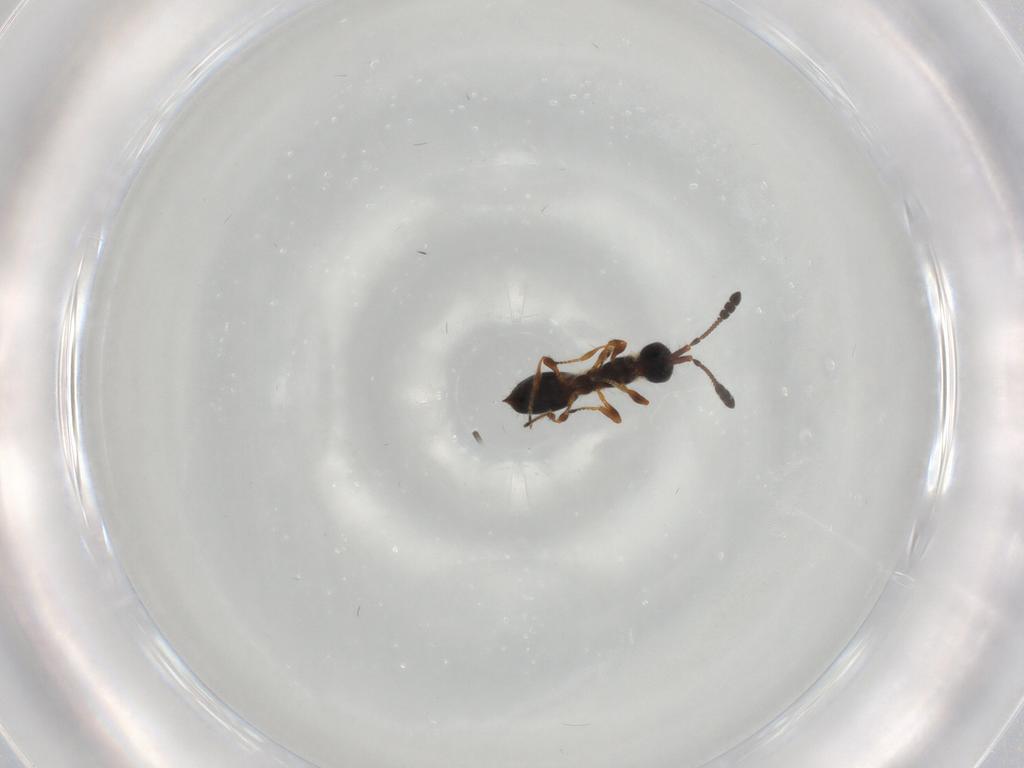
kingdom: Animalia
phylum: Arthropoda
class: Insecta
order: Hymenoptera
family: Diapriidae
